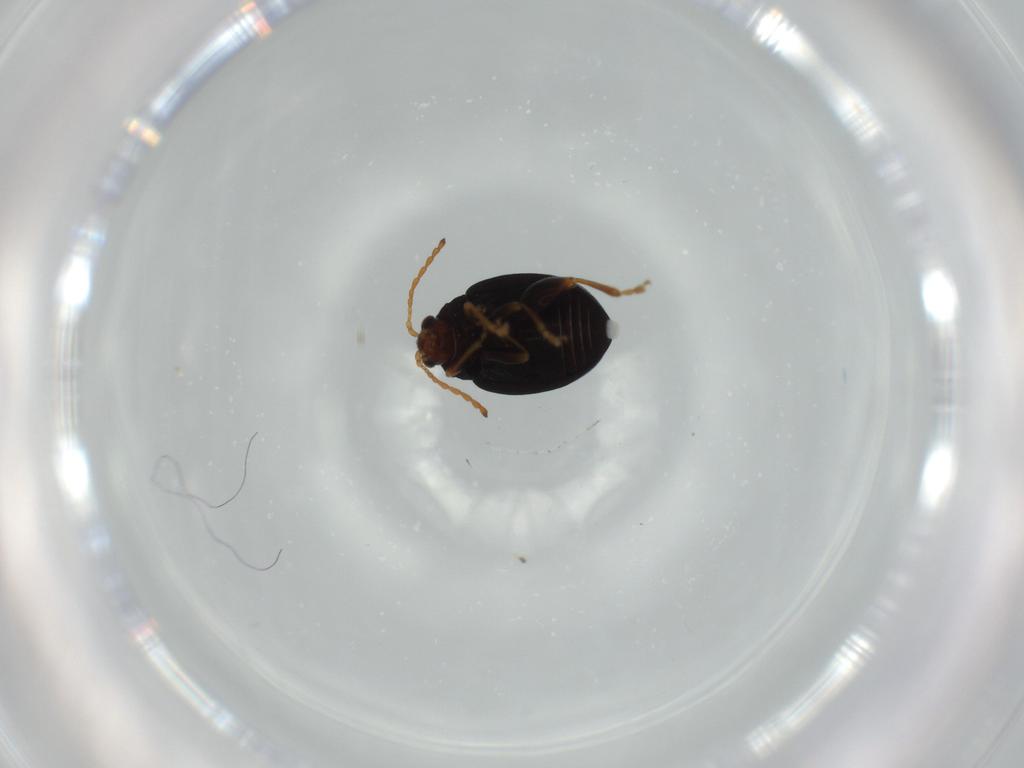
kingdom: Animalia
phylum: Arthropoda
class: Insecta
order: Coleoptera
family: Chrysomelidae
